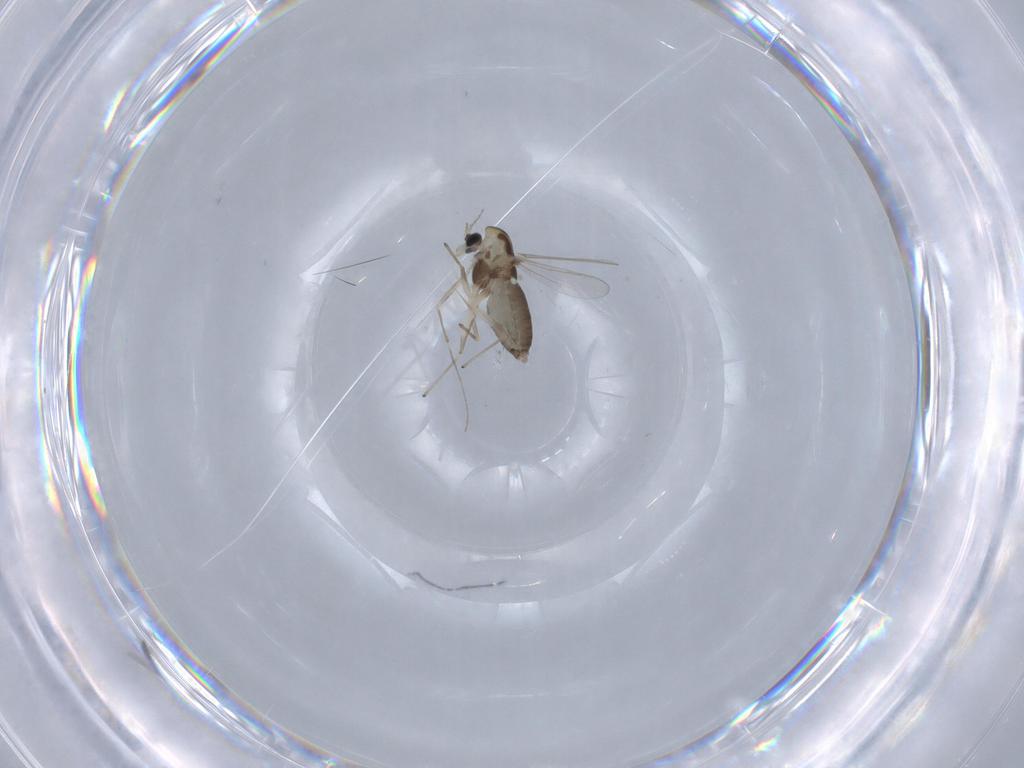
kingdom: Animalia
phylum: Arthropoda
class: Insecta
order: Diptera
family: Chironomidae
